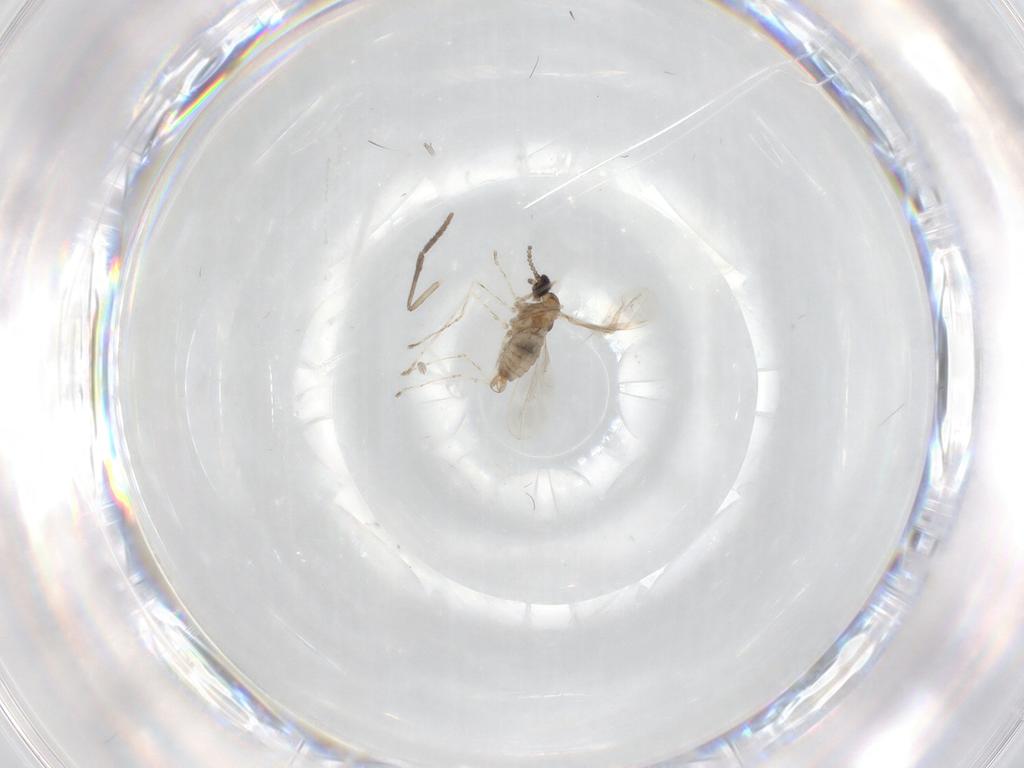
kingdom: Animalia
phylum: Arthropoda
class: Insecta
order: Diptera
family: Cecidomyiidae
